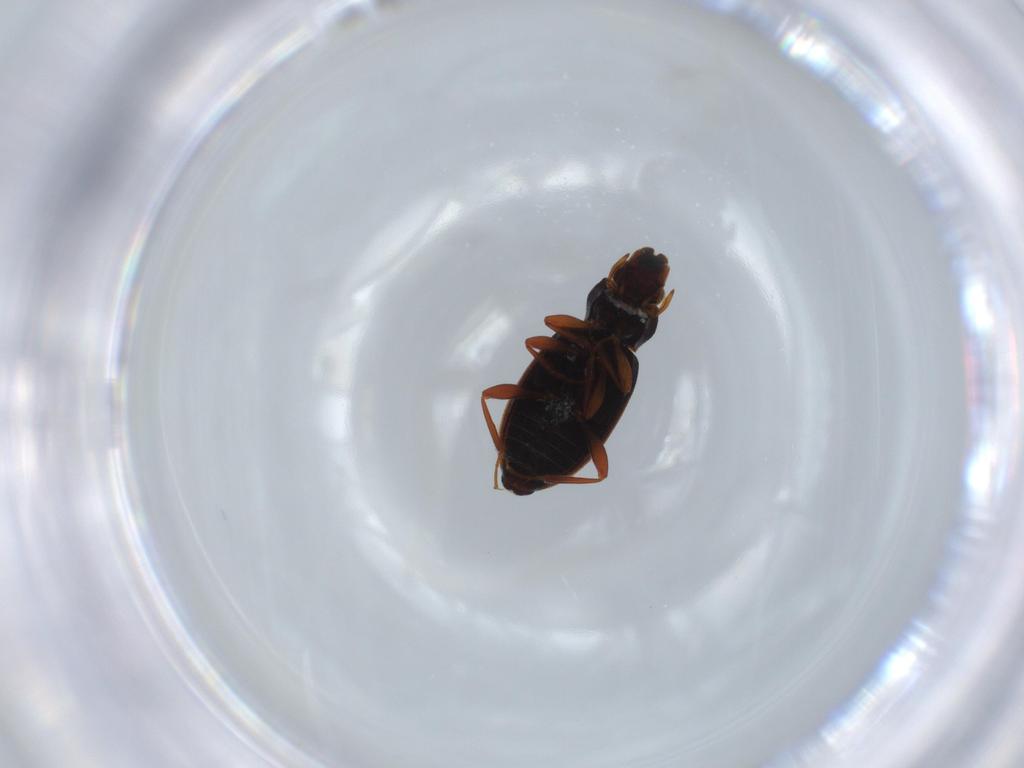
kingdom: Animalia
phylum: Arthropoda
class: Insecta
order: Coleoptera
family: Hydraenidae
